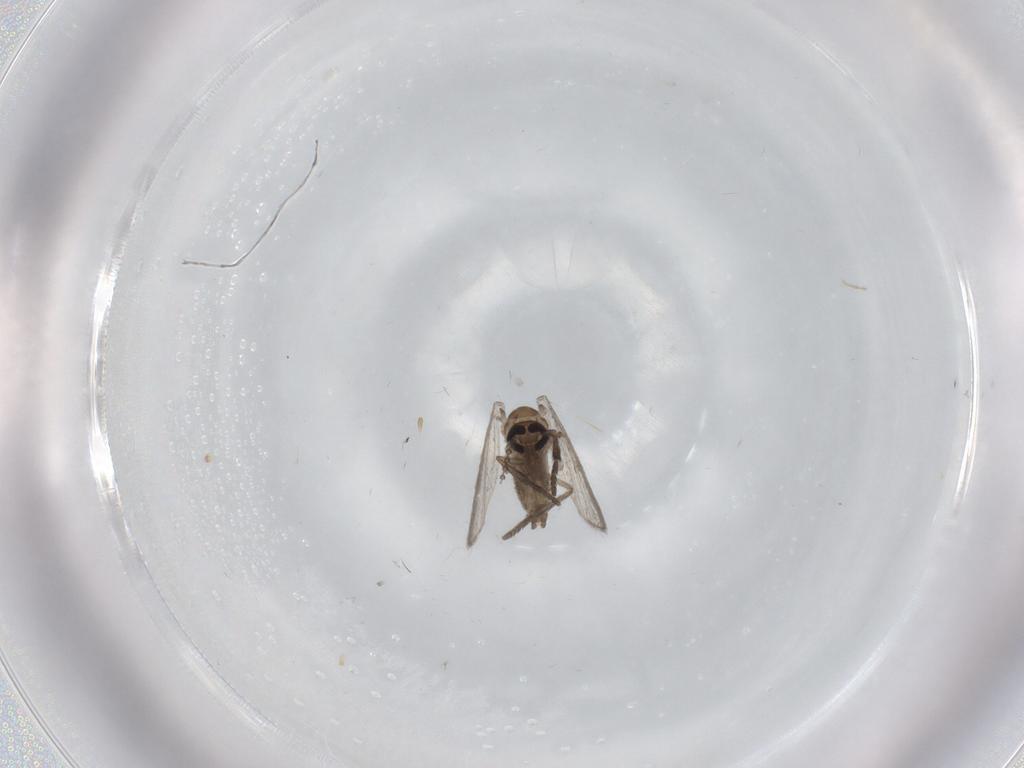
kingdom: Animalia
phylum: Arthropoda
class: Insecta
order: Diptera
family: Psychodidae
